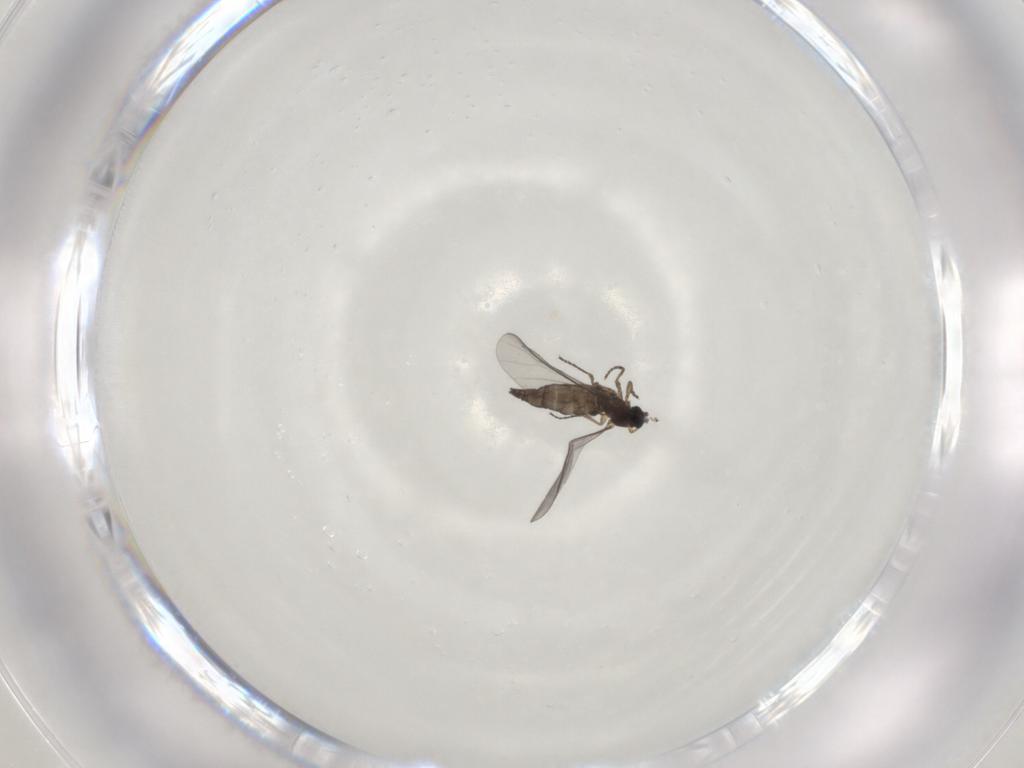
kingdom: Animalia
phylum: Arthropoda
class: Insecta
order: Diptera
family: Sciaridae
